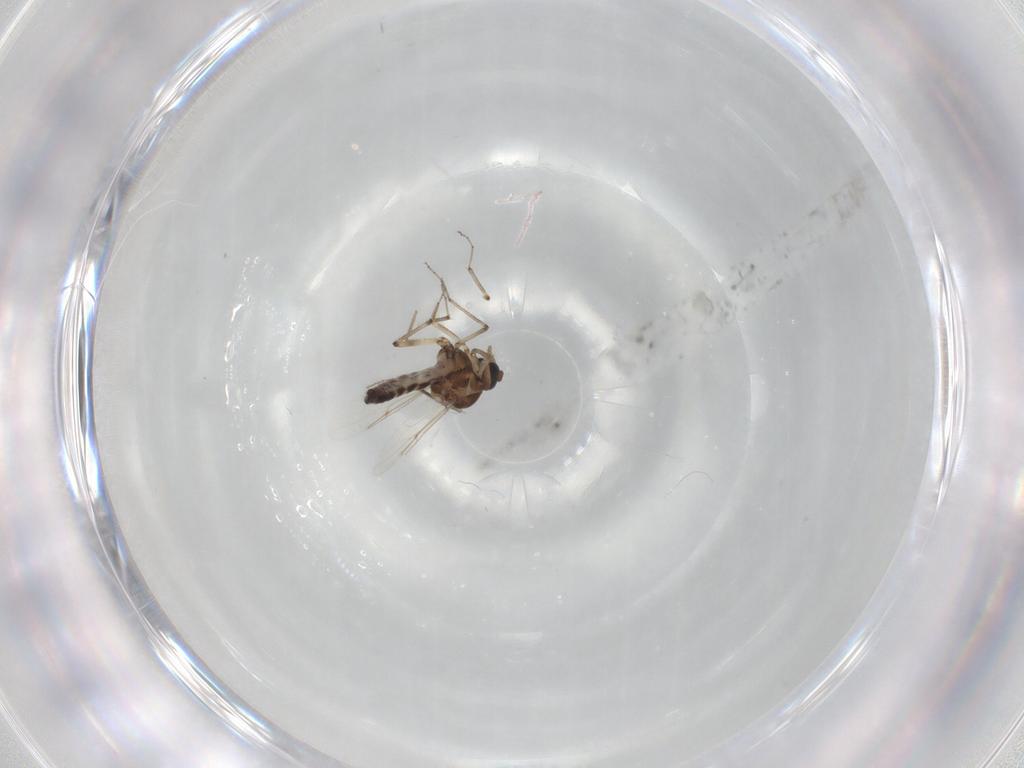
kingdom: Animalia
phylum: Arthropoda
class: Insecta
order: Diptera
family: Ceratopogonidae
